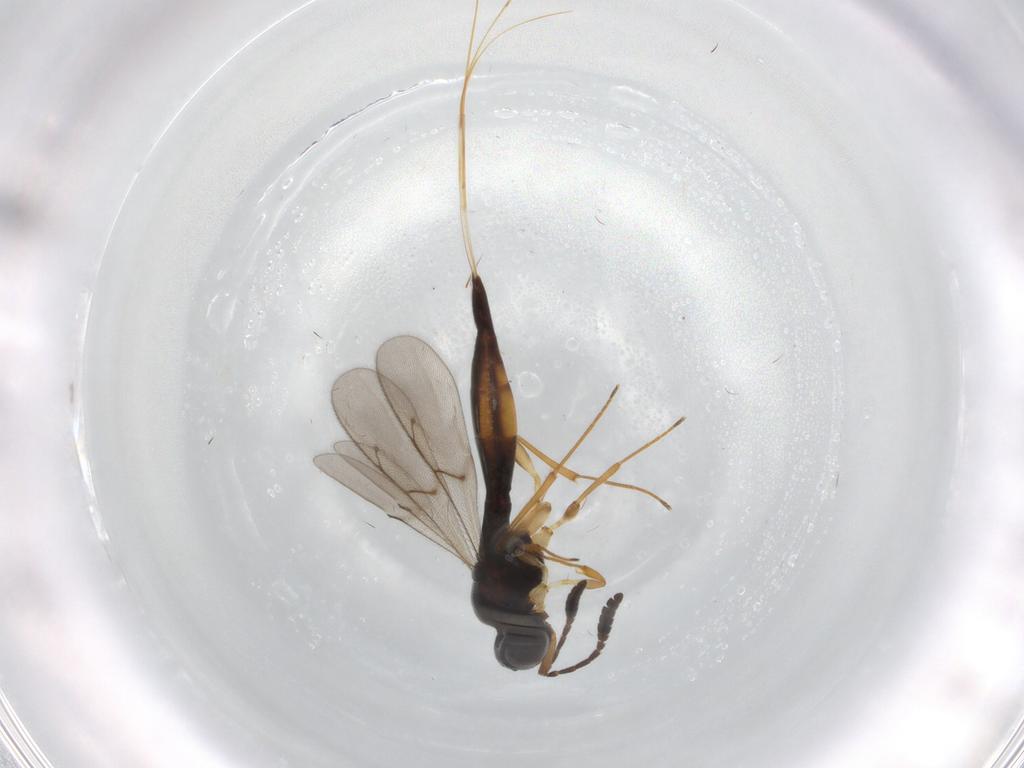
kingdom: Animalia
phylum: Arthropoda
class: Insecta
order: Hymenoptera
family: Scelionidae
